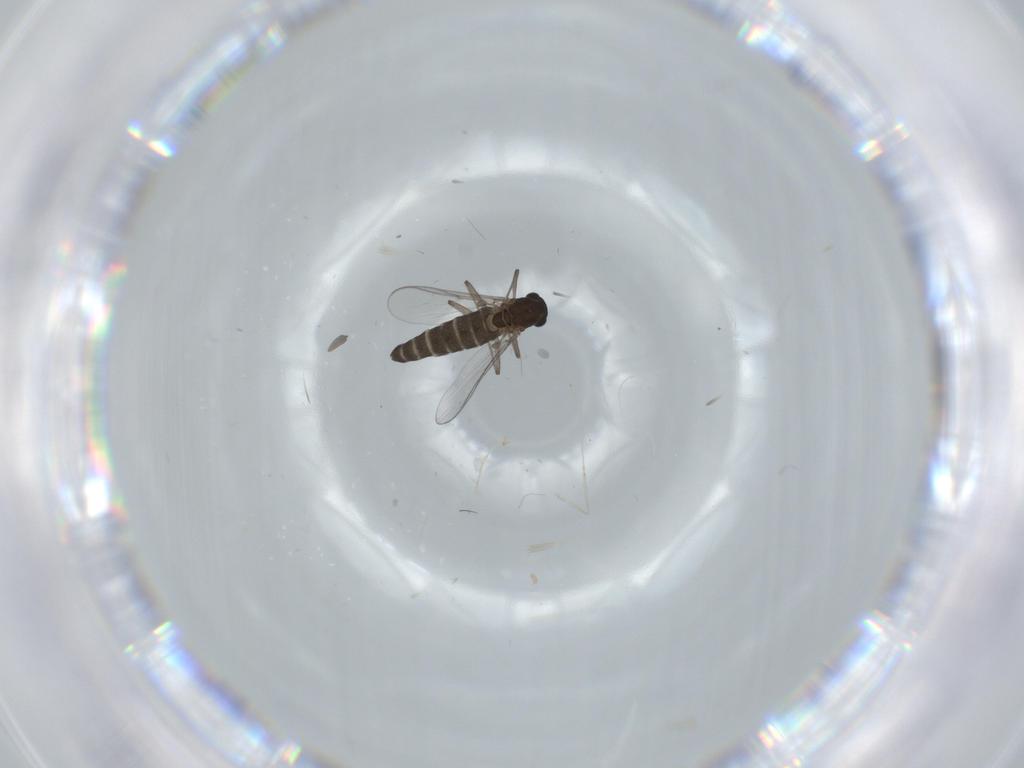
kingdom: Animalia
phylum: Arthropoda
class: Insecta
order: Diptera
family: Chironomidae
